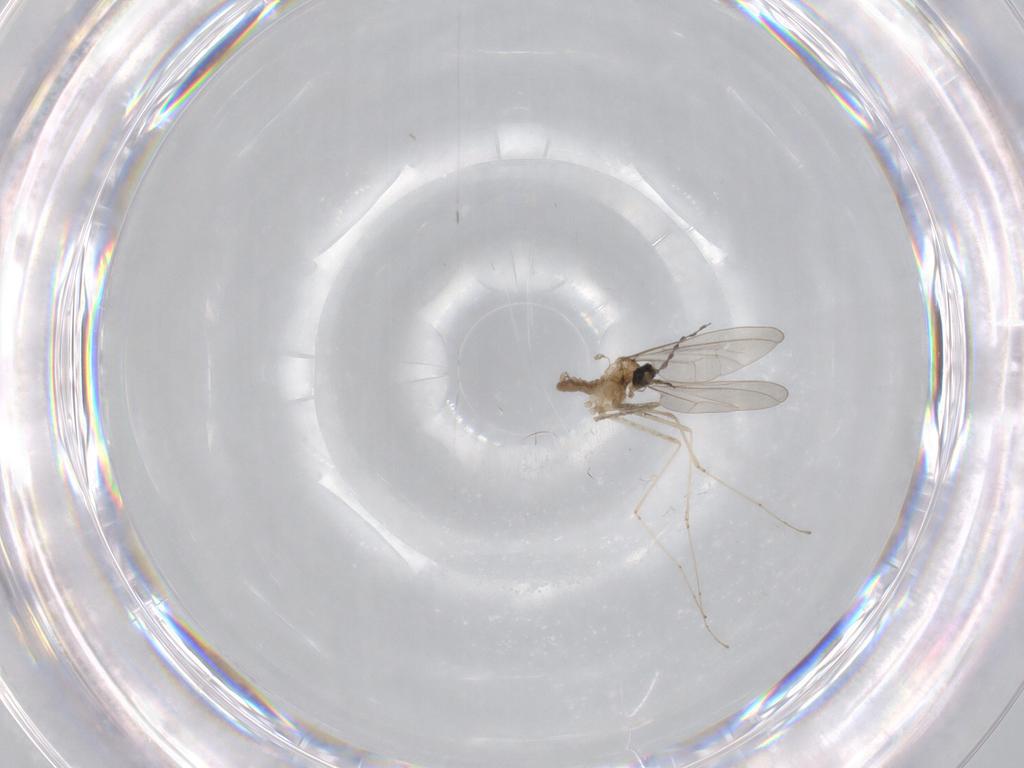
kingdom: Animalia
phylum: Arthropoda
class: Insecta
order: Diptera
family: Cecidomyiidae
